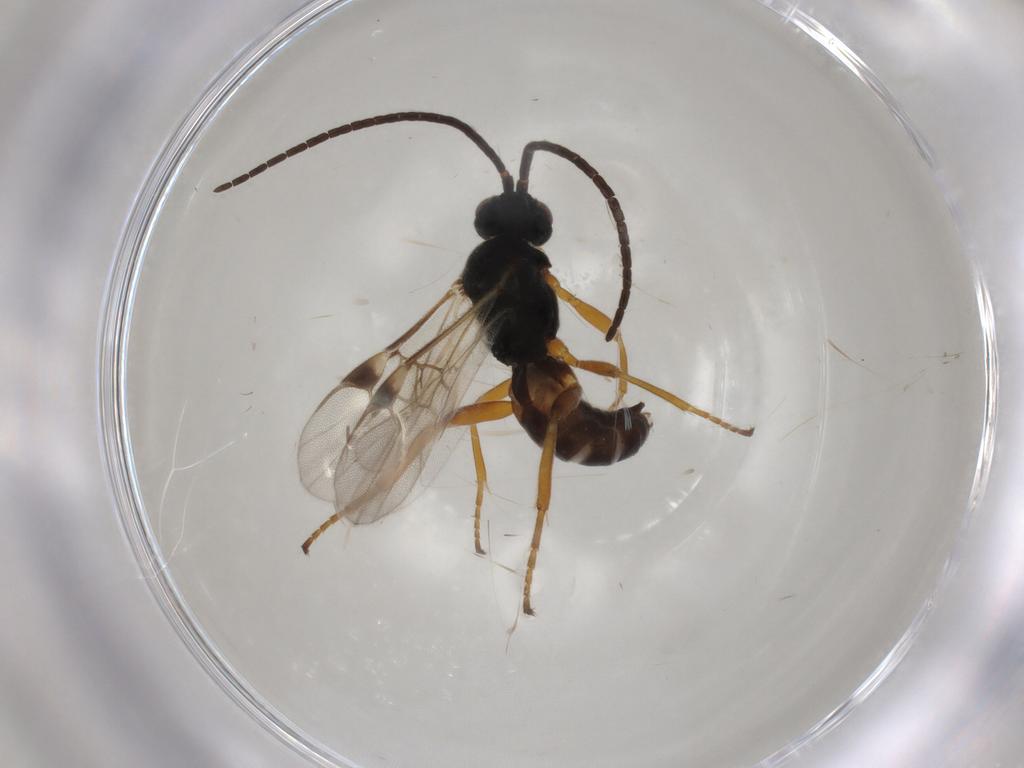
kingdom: Animalia
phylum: Arthropoda
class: Insecta
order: Hymenoptera
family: Braconidae
